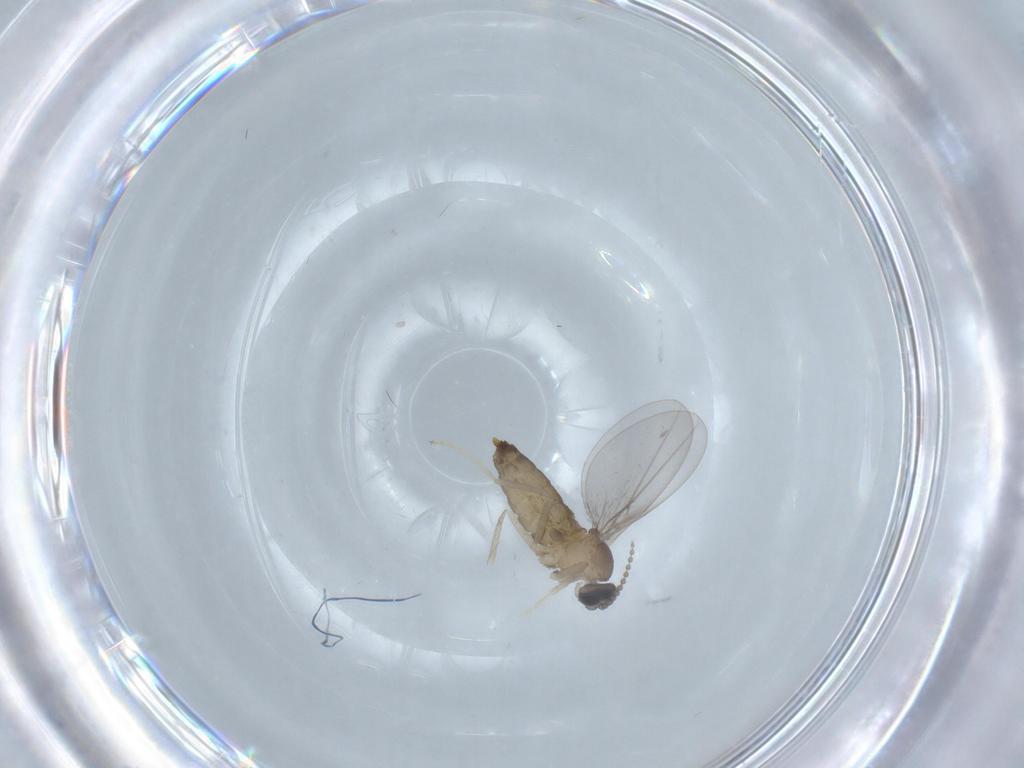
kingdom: Animalia
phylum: Arthropoda
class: Insecta
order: Diptera
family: Cecidomyiidae
